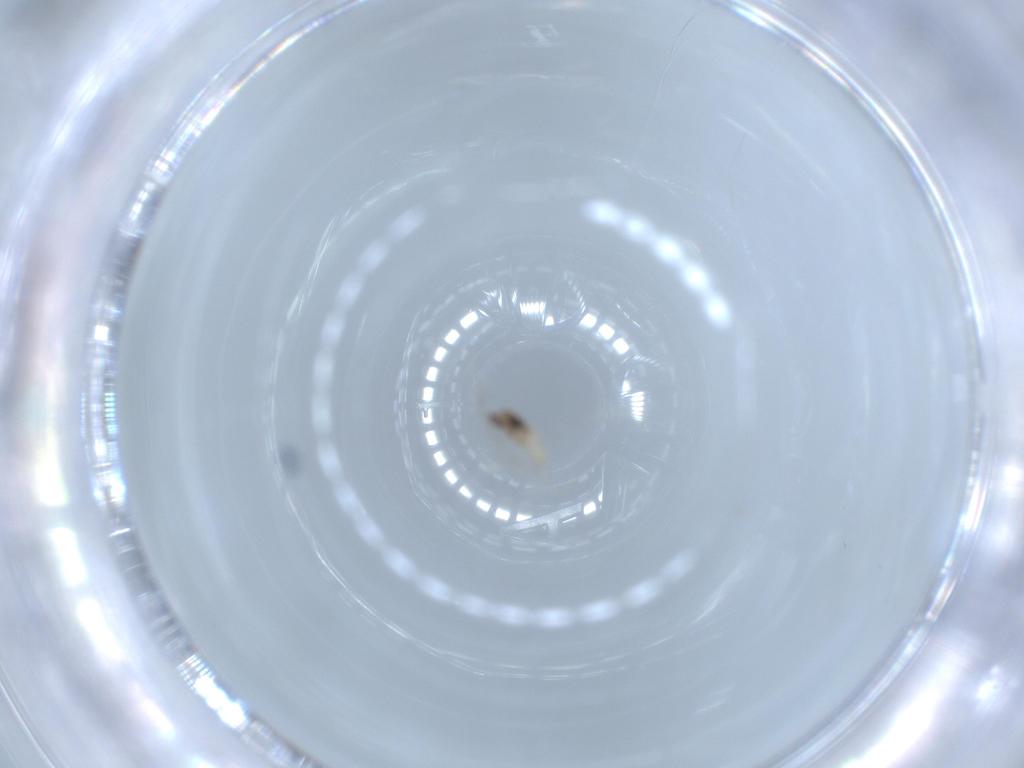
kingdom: Animalia
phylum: Arthropoda
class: Insecta
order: Diptera
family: Cecidomyiidae
